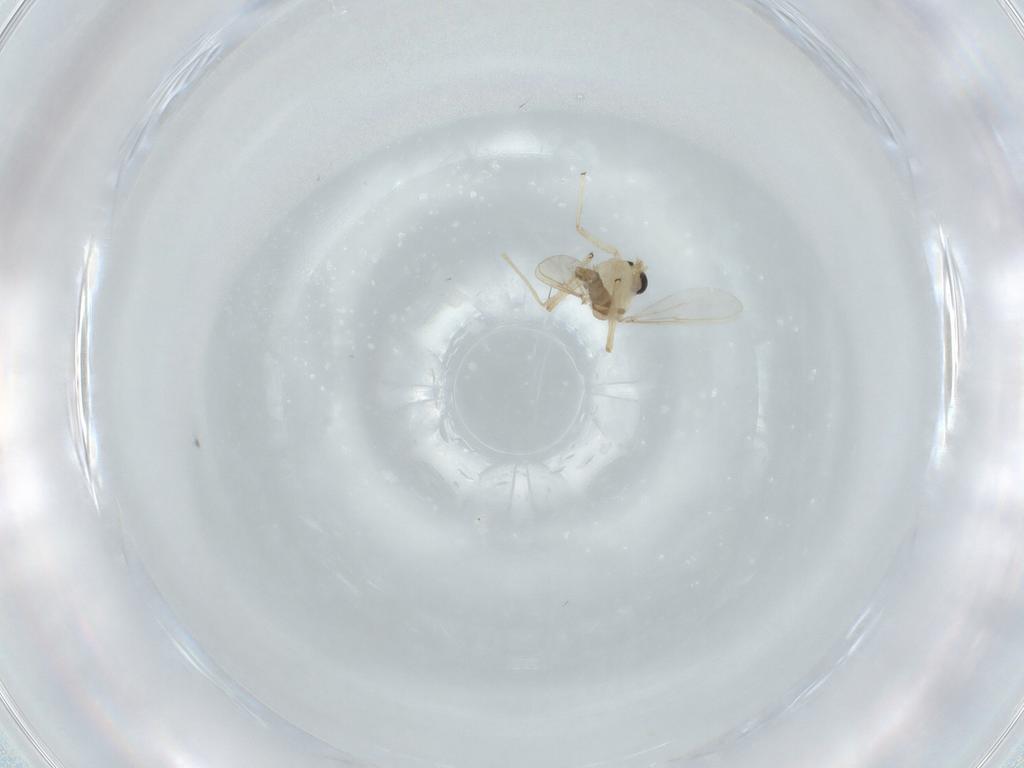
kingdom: Animalia
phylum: Arthropoda
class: Insecta
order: Diptera
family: Chironomidae
